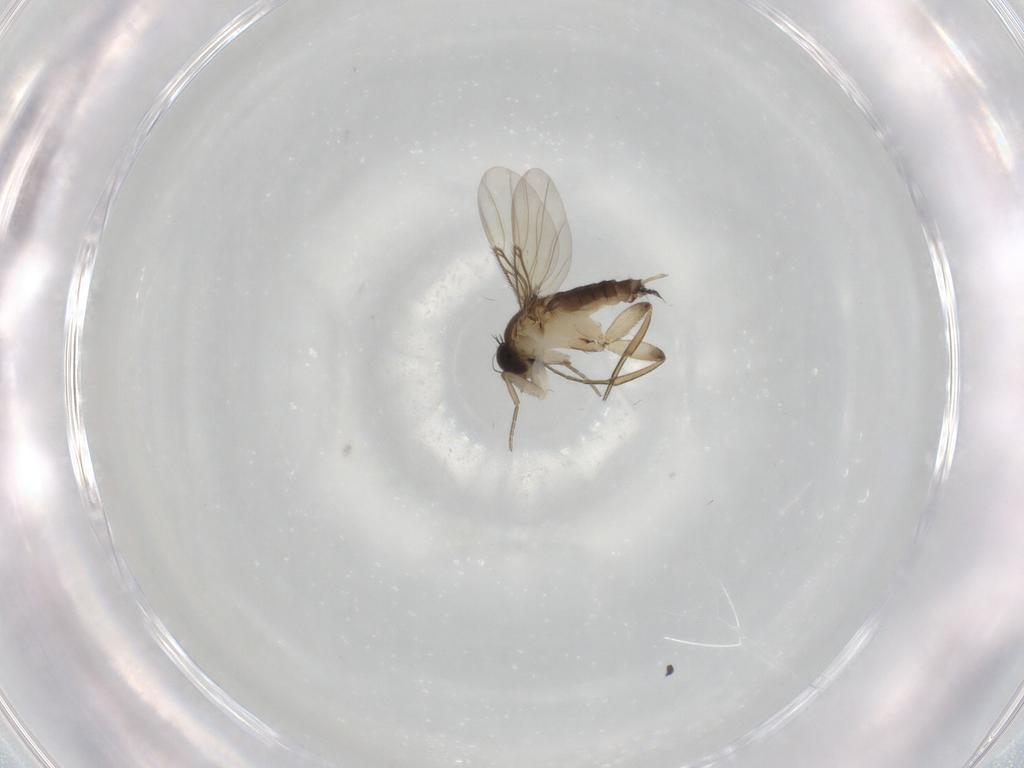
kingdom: Animalia
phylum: Arthropoda
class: Insecta
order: Diptera
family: Phoridae
